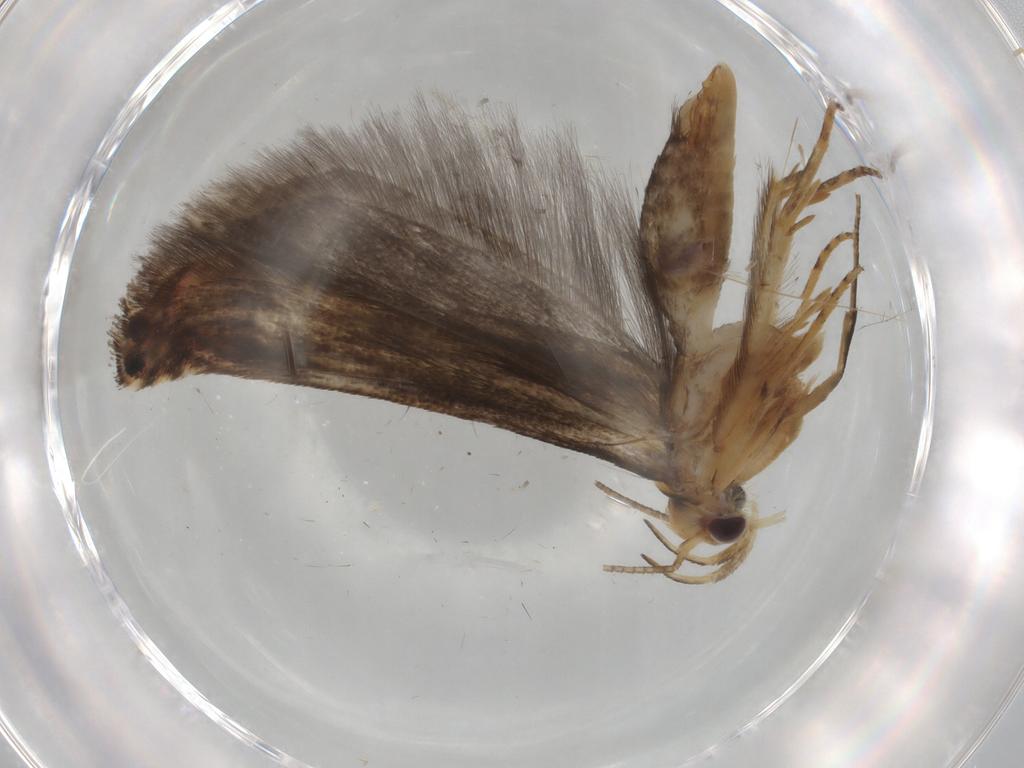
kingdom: Animalia
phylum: Arthropoda
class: Insecta
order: Lepidoptera
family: Gelechiidae
